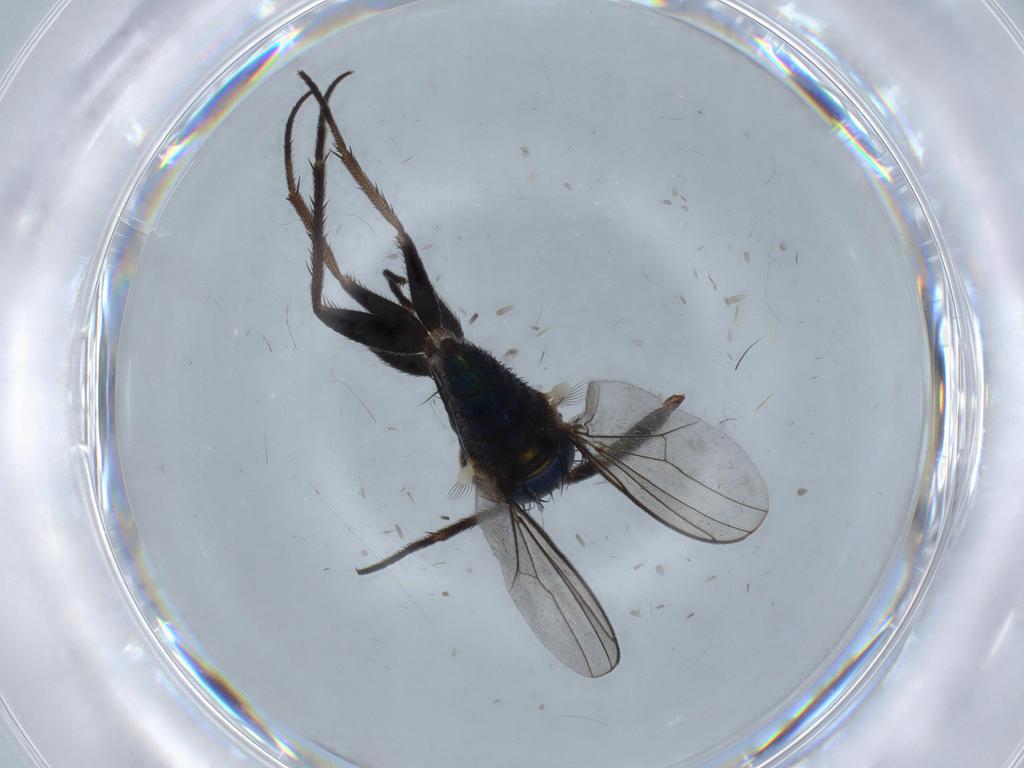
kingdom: Animalia
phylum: Arthropoda
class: Insecta
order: Diptera
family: Dolichopodidae
